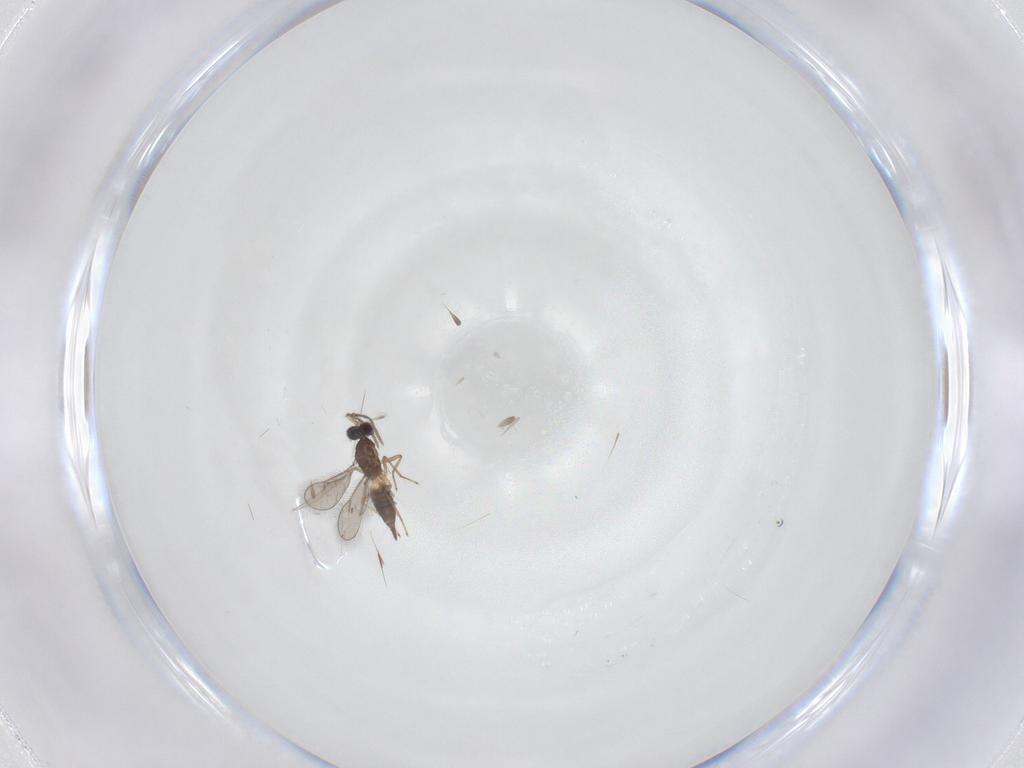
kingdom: Animalia
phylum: Arthropoda
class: Insecta
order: Hymenoptera
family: Eulophidae
